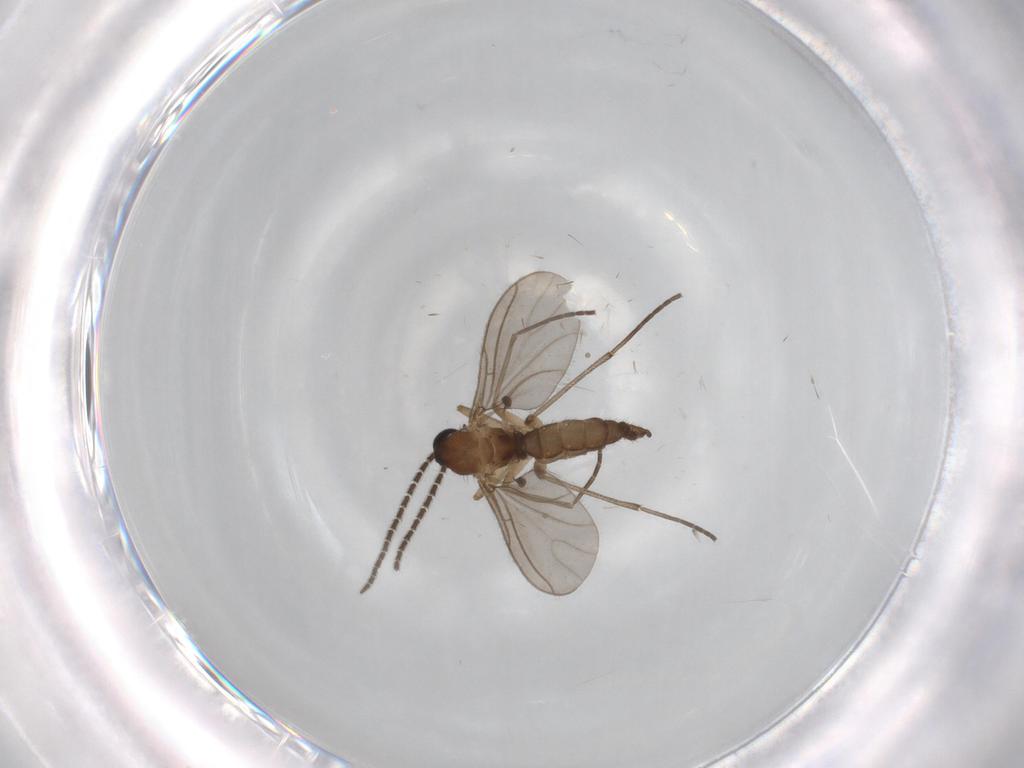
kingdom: Animalia
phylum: Arthropoda
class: Insecta
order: Diptera
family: Sciaridae
